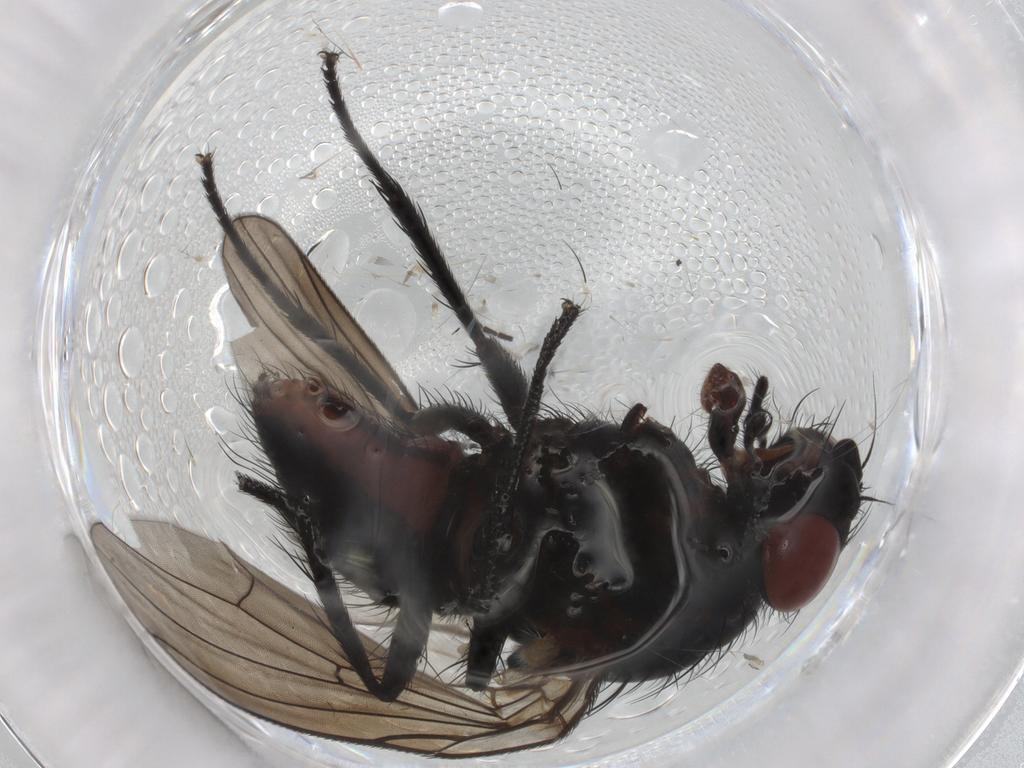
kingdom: Animalia
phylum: Arthropoda
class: Insecta
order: Diptera
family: Anthomyiidae
